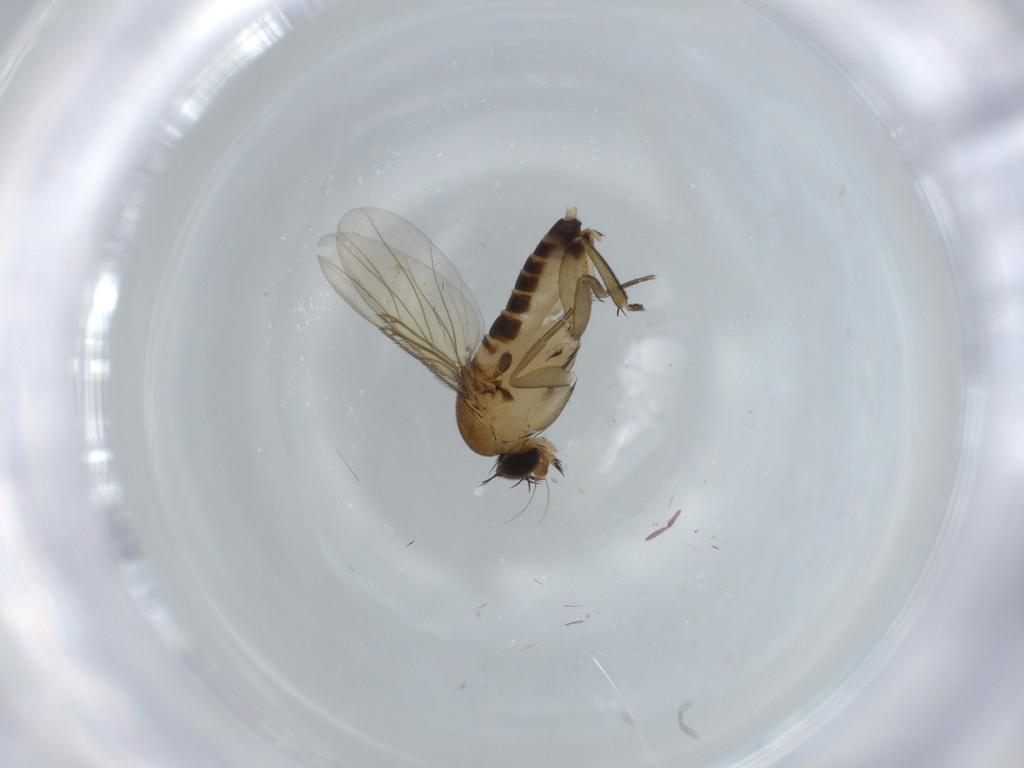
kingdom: Animalia
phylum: Arthropoda
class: Insecta
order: Diptera
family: Phoridae
